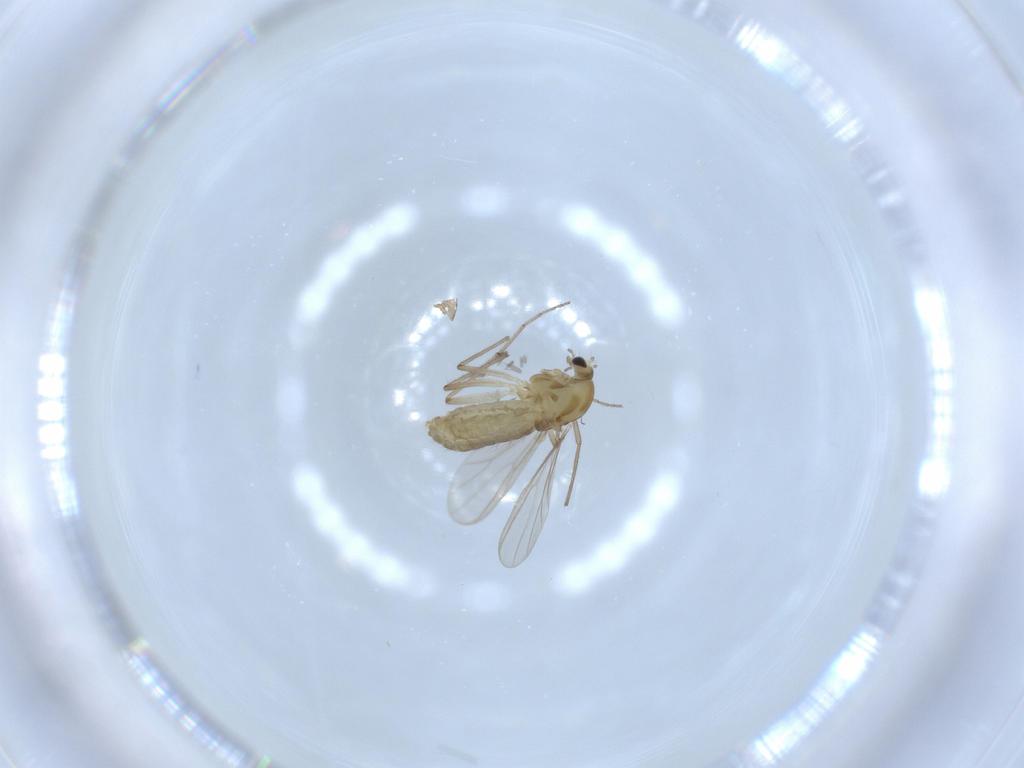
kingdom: Animalia
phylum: Arthropoda
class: Insecta
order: Diptera
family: Chironomidae
